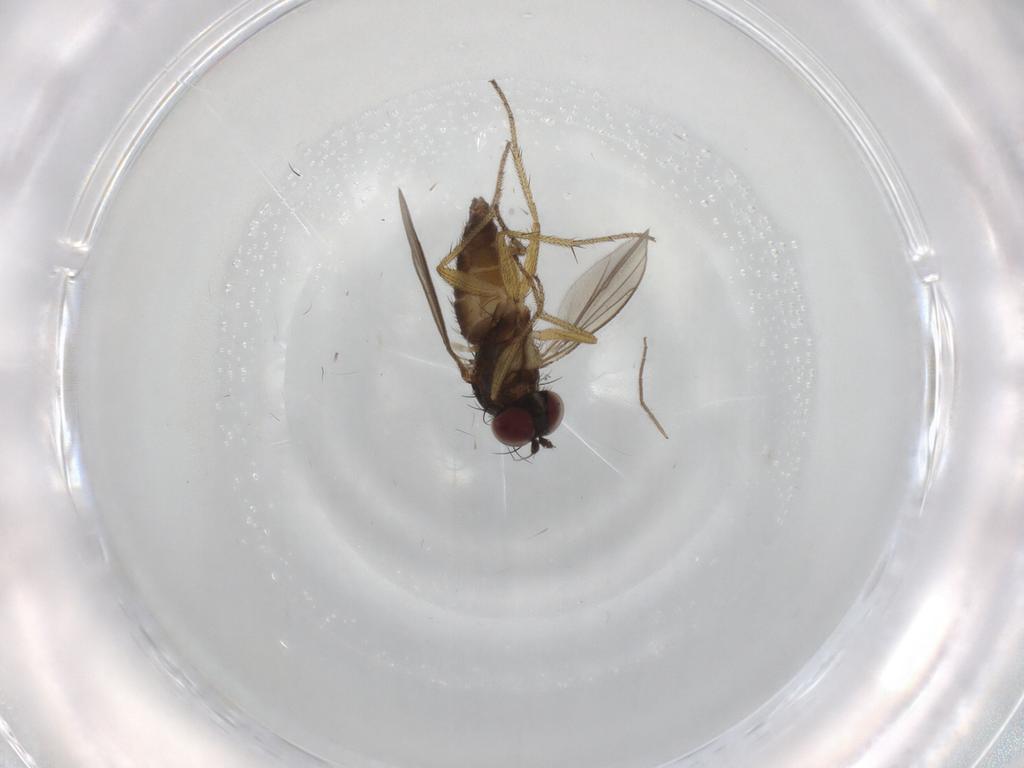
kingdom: Animalia
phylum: Arthropoda
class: Insecta
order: Diptera
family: Dolichopodidae
